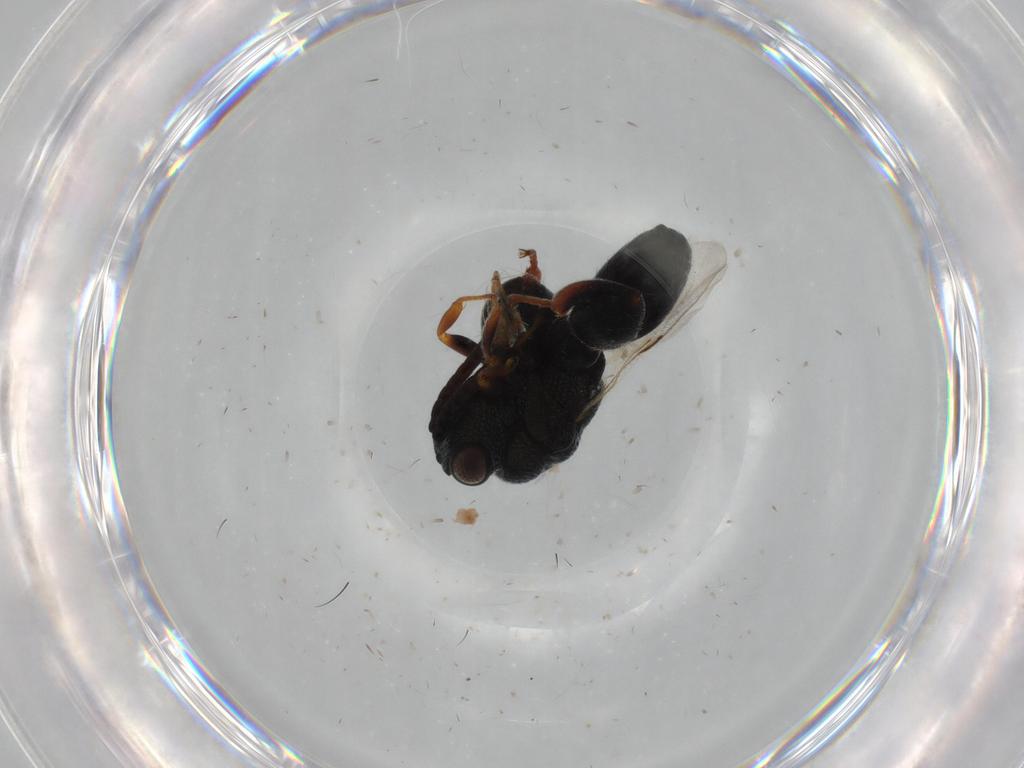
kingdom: Animalia
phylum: Arthropoda
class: Insecta
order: Hymenoptera
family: Chalcididae
